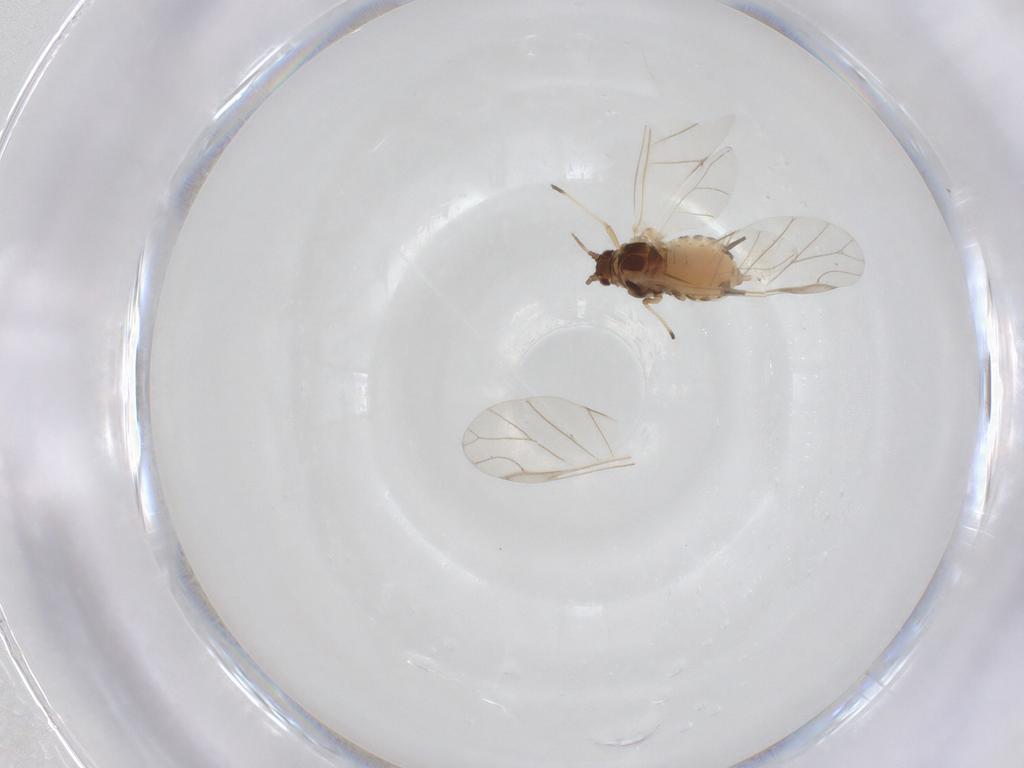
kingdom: Animalia
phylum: Arthropoda
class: Insecta
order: Hemiptera
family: Aphididae
